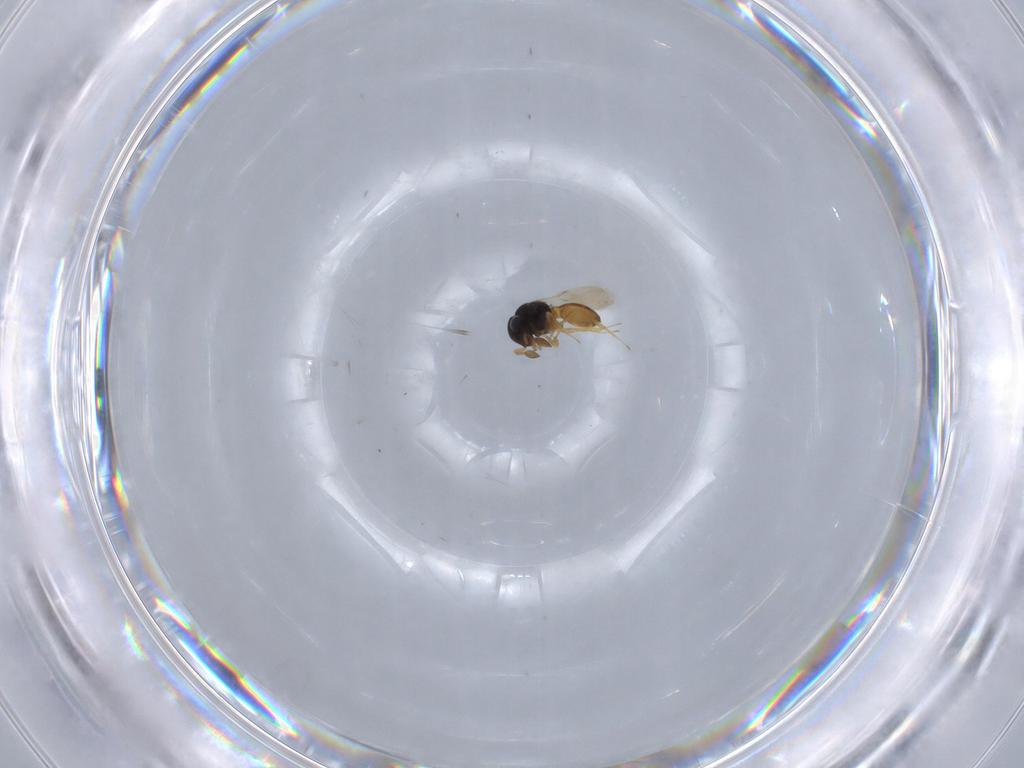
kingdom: Animalia
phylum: Arthropoda
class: Insecta
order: Hymenoptera
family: Scelionidae
